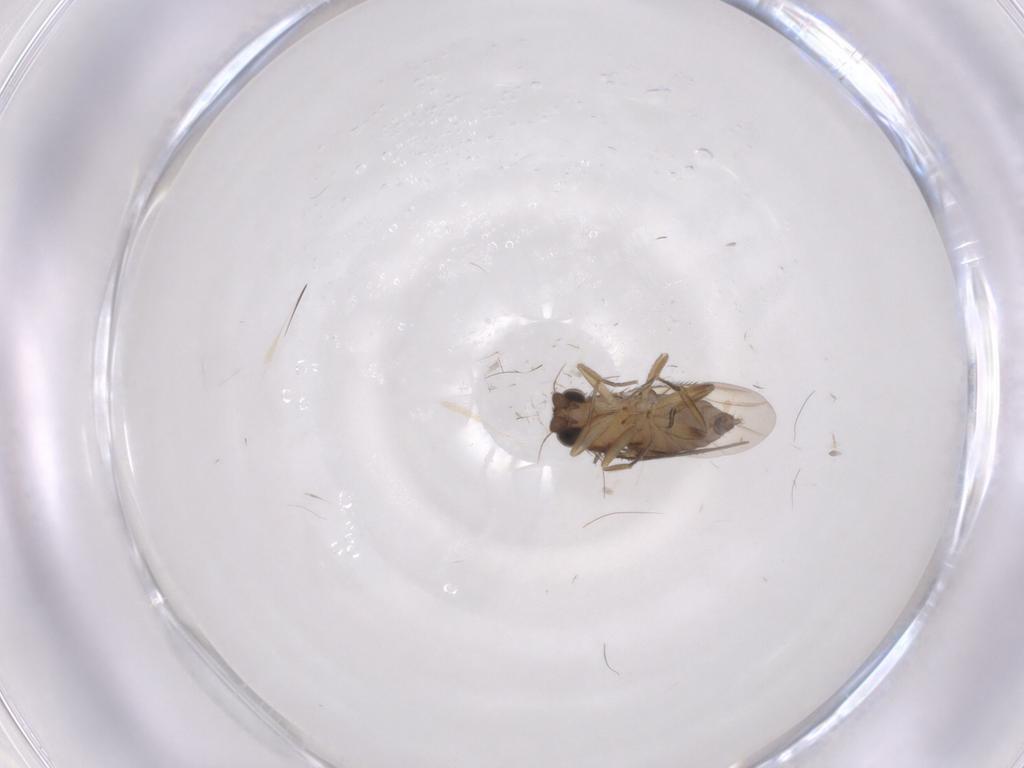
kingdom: Animalia
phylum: Arthropoda
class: Insecta
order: Diptera
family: Phoridae
